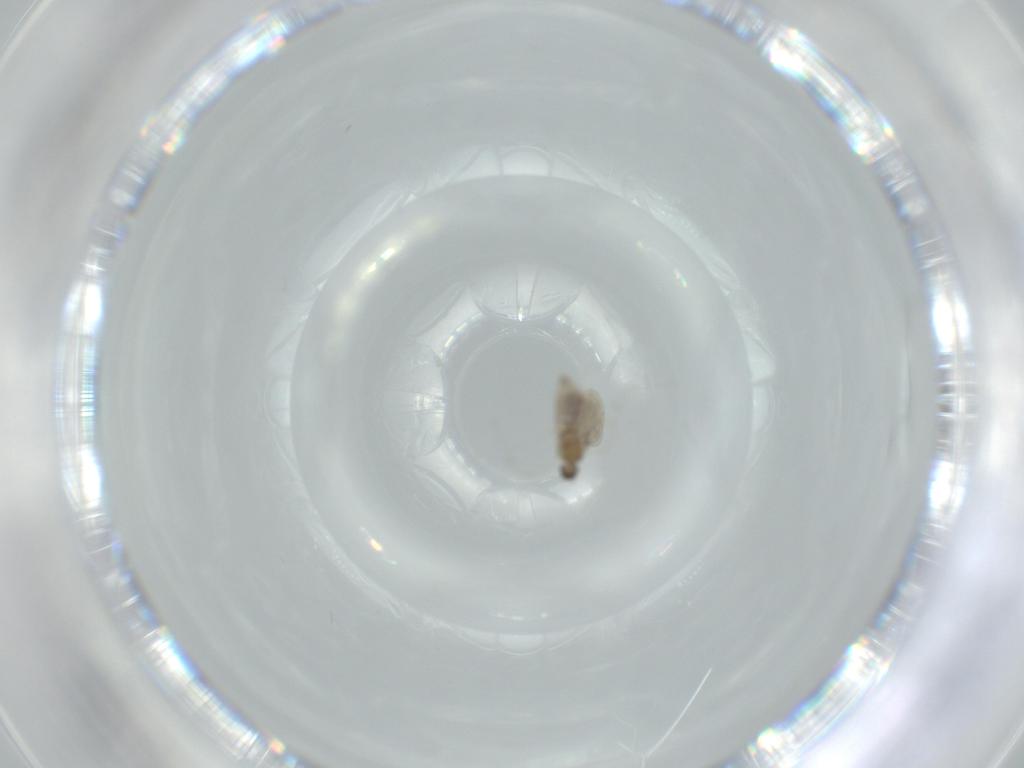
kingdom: Animalia
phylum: Arthropoda
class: Insecta
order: Diptera
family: Cecidomyiidae
